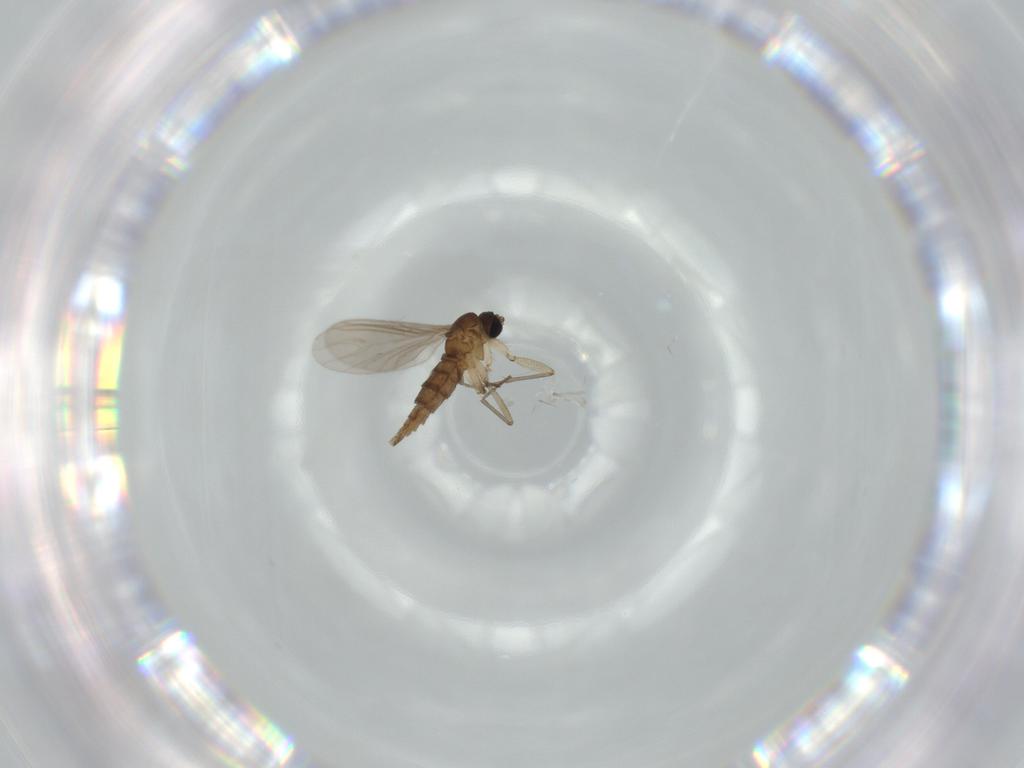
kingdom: Animalia
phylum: Arthropoda
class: Insecta
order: Diptera
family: Sciaridae
